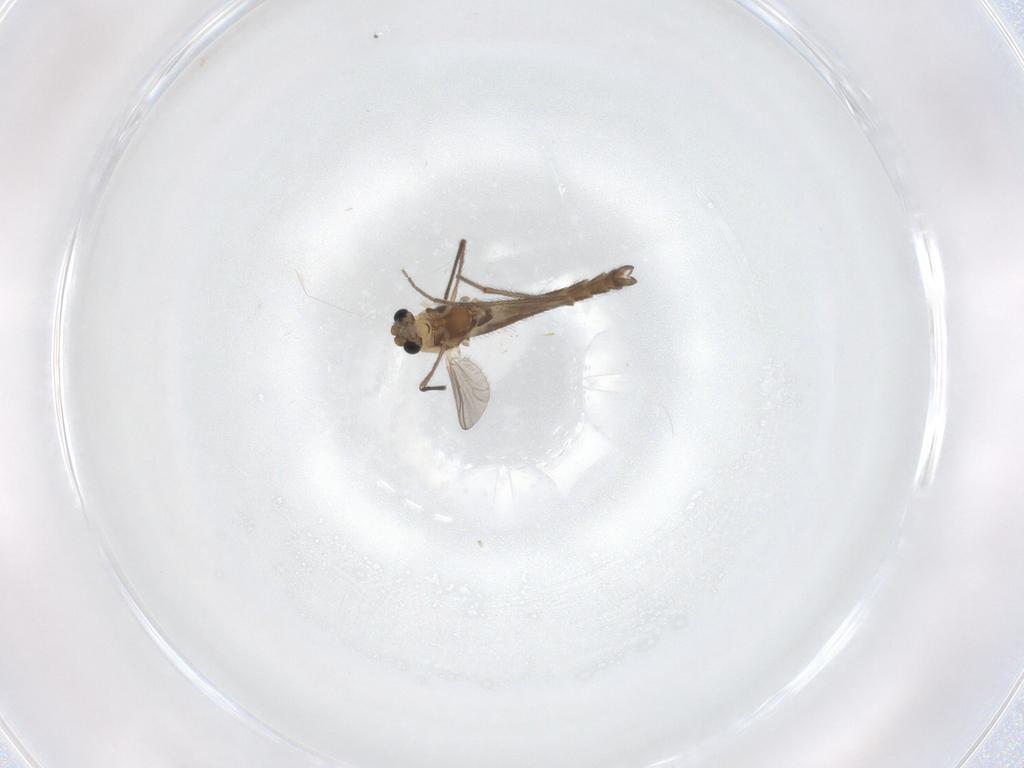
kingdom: Animalia
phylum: Arthropoda
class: Insecta
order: Diptera
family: Chironomidae
